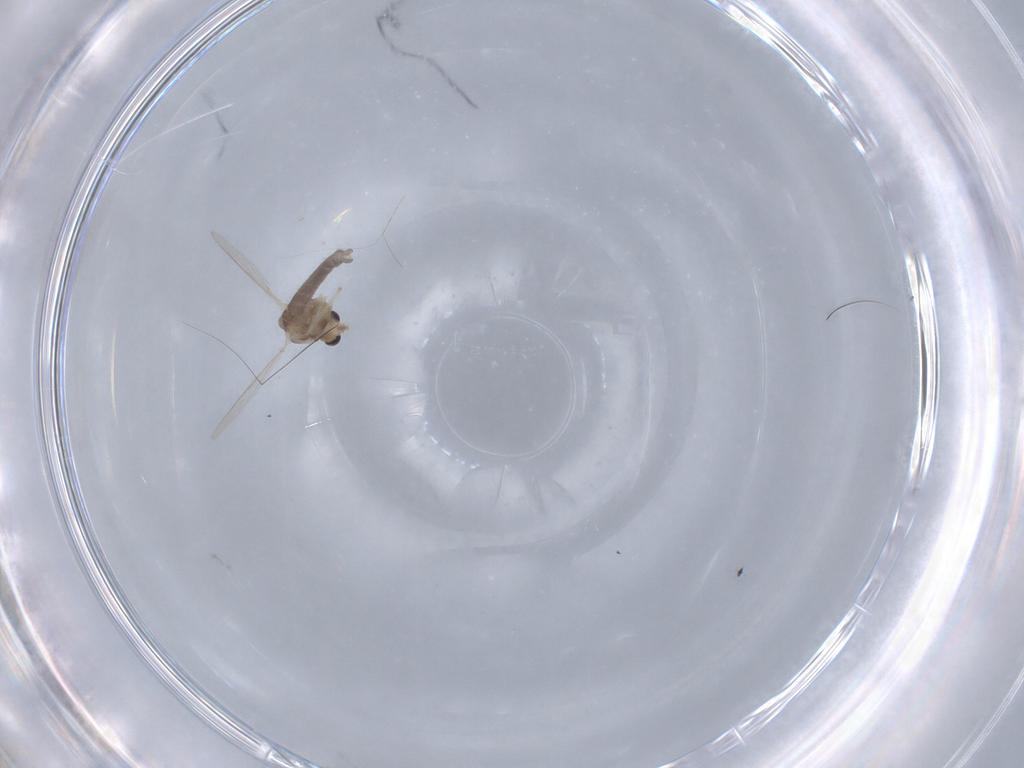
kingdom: Animalia
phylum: Arthropoda
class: Insecta
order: Diptera
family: Chironomidae
